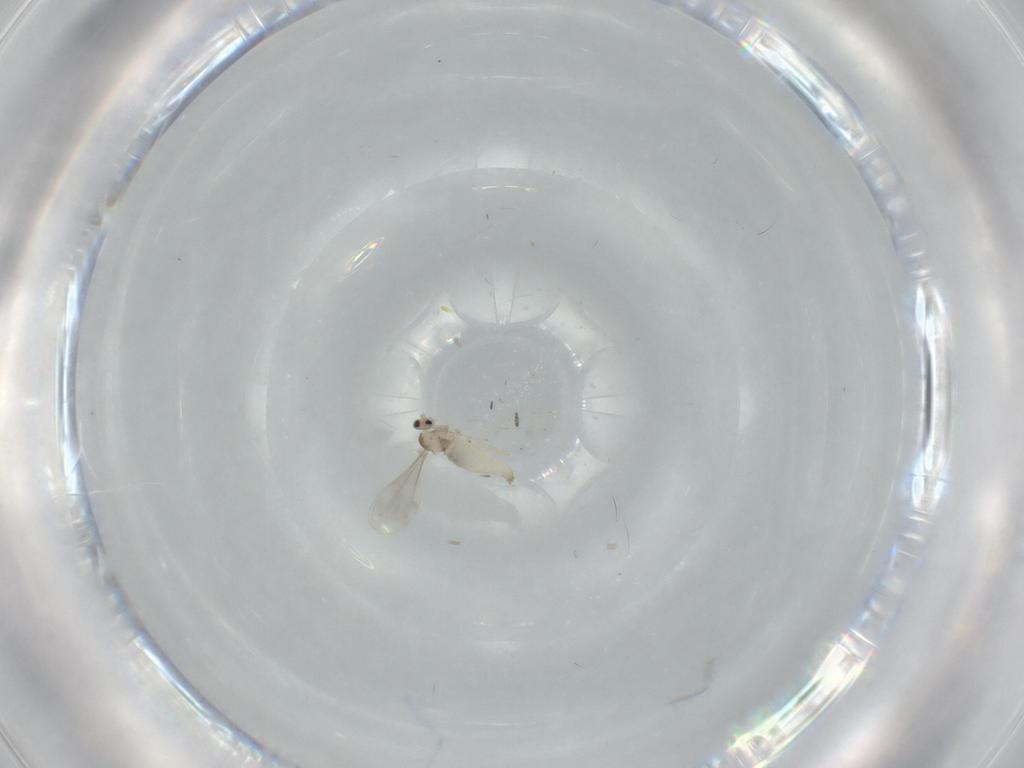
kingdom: Animalia
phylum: Arthropoda
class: Insecta
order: Diptera
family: Cecidomyiidae
